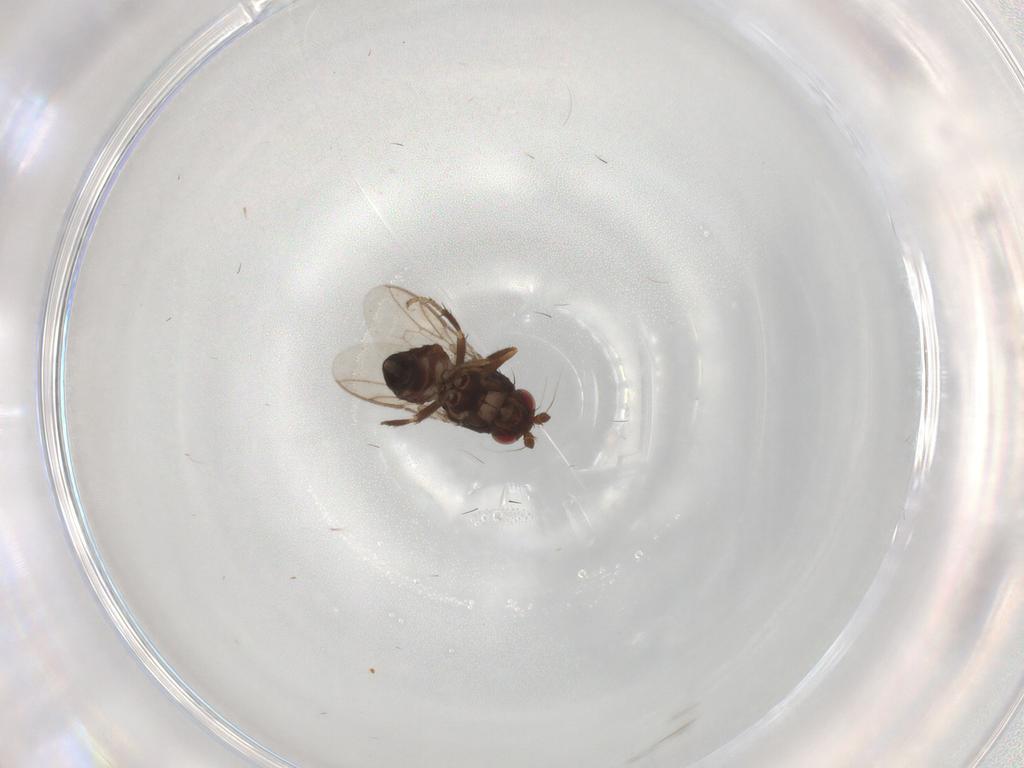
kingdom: Animalia
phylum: Arthropoda
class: Insecta
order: Diptera
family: Sphaeroceridae
